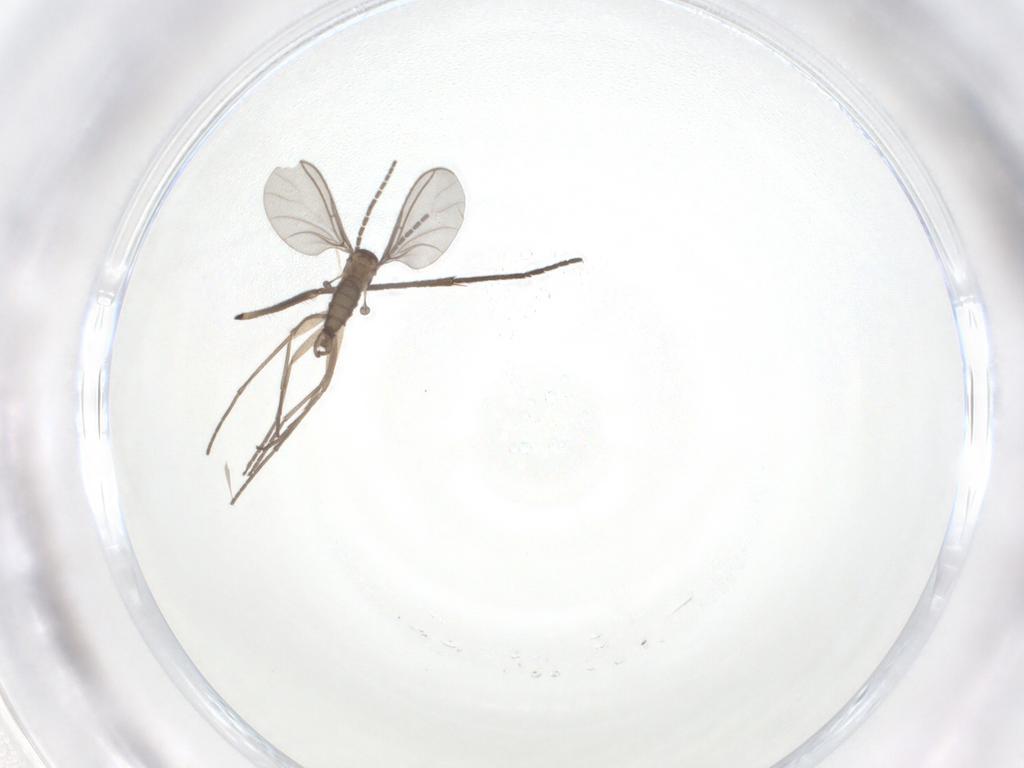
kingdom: Animalia
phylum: Arthropoda
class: Insecta
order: Diptera
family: Sciaridae
